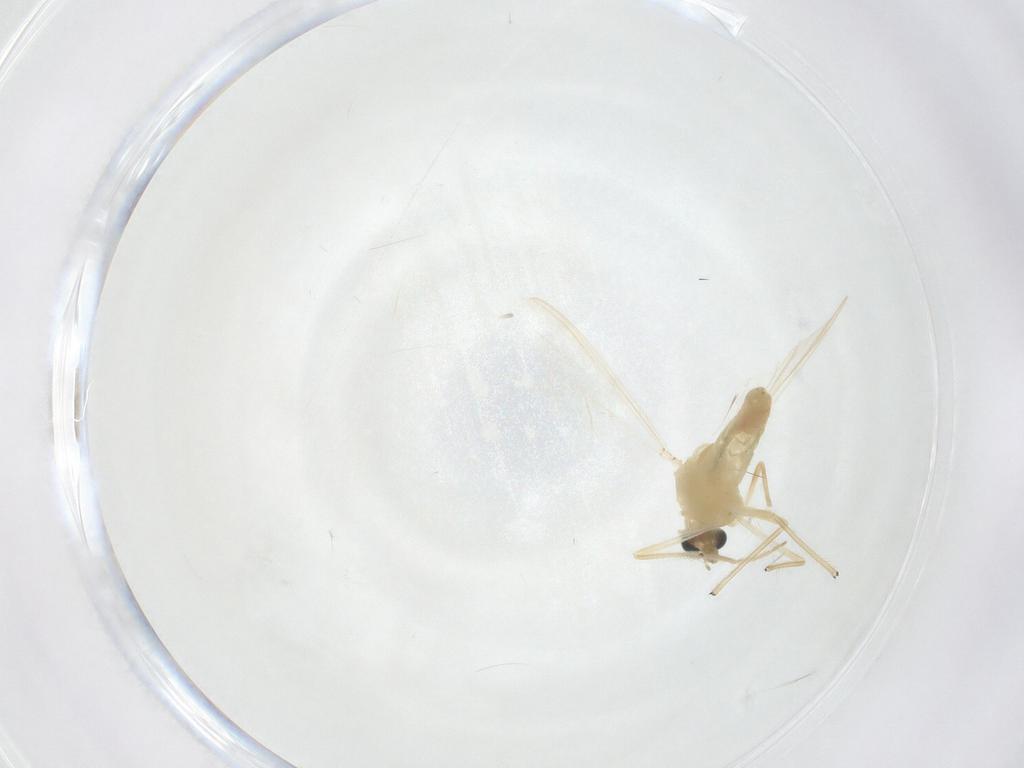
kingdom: Animalia
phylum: Arthropoda
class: Insecta
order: Diptera
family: Chironomidae
